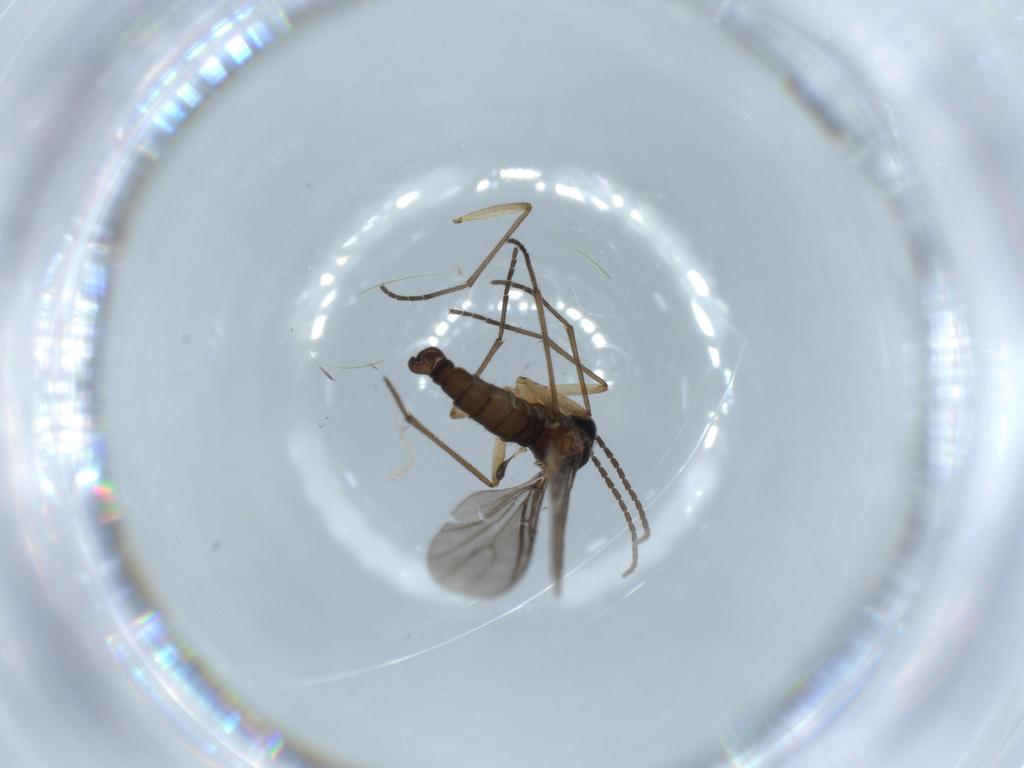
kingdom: Animalia
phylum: Arthropoda
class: Insecta
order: Diptera
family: Sciaridae
